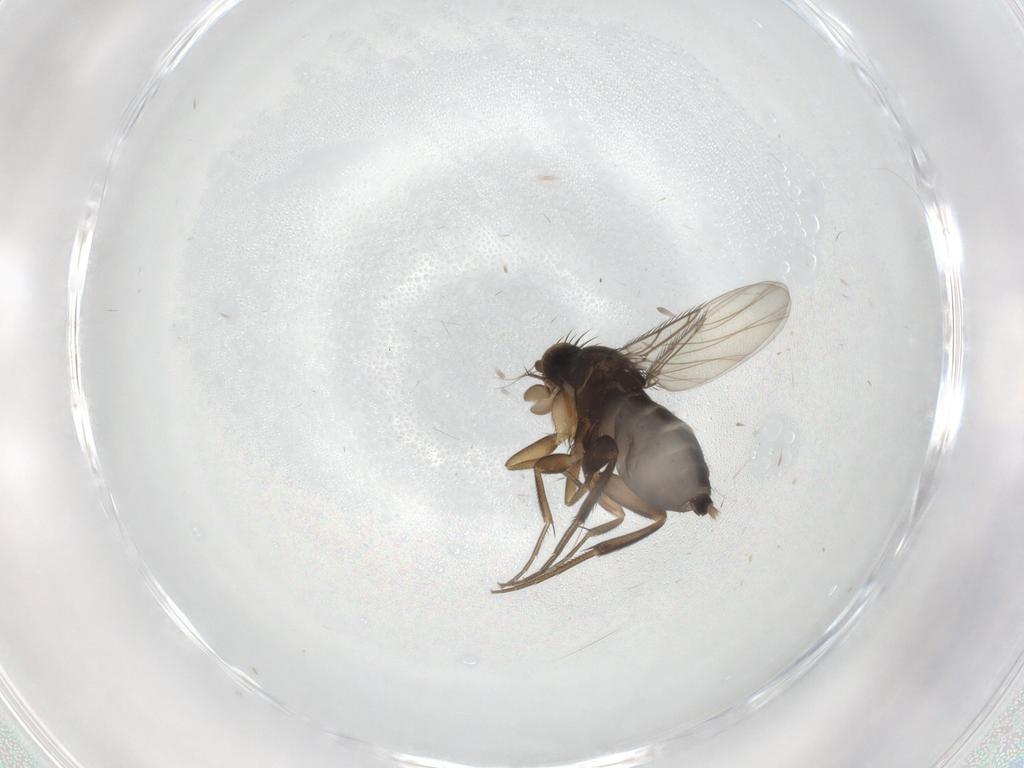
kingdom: Animalia
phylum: Arthropoda
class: Insecta
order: Diptera
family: Phoridae
